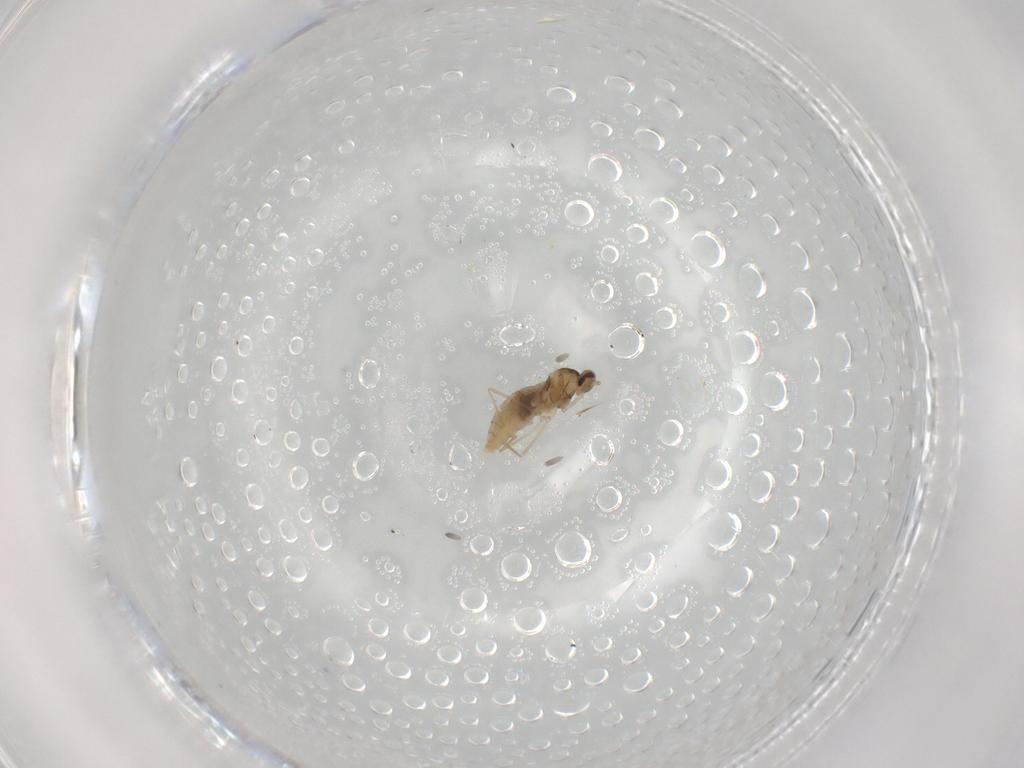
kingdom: Animalia
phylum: Arthropoda
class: Insecta
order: Diptera
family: Cecidomyiidae
